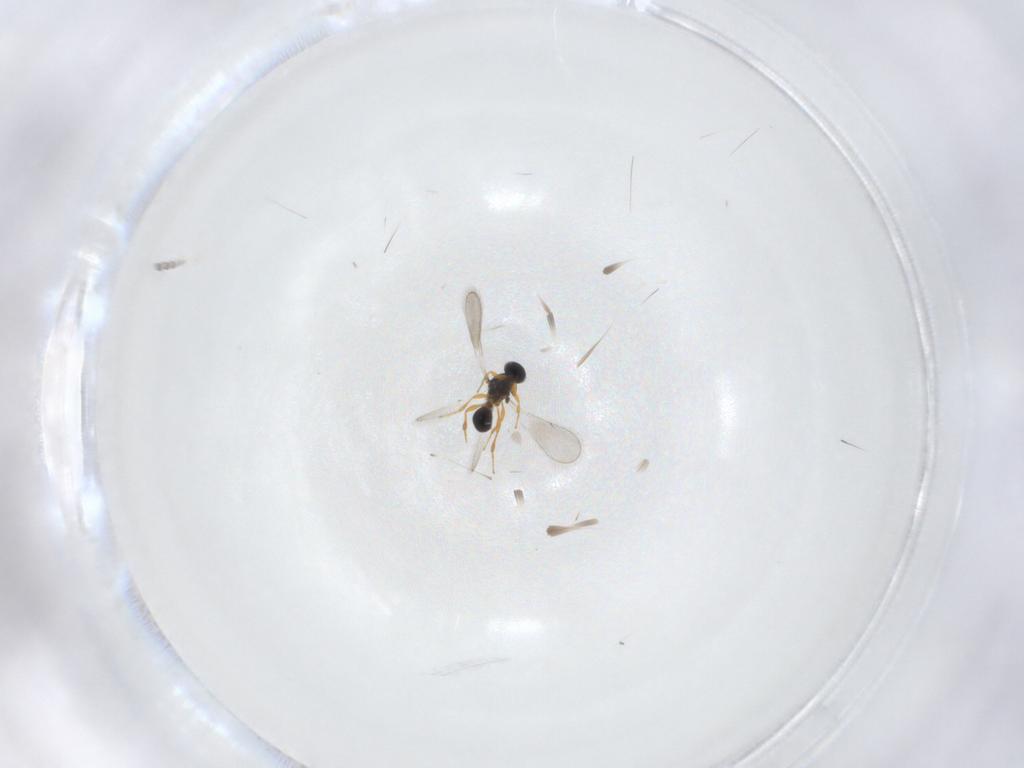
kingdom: Animalia
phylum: Arthropoda
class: Insecta
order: Hymenoptera
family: Platygastridae
